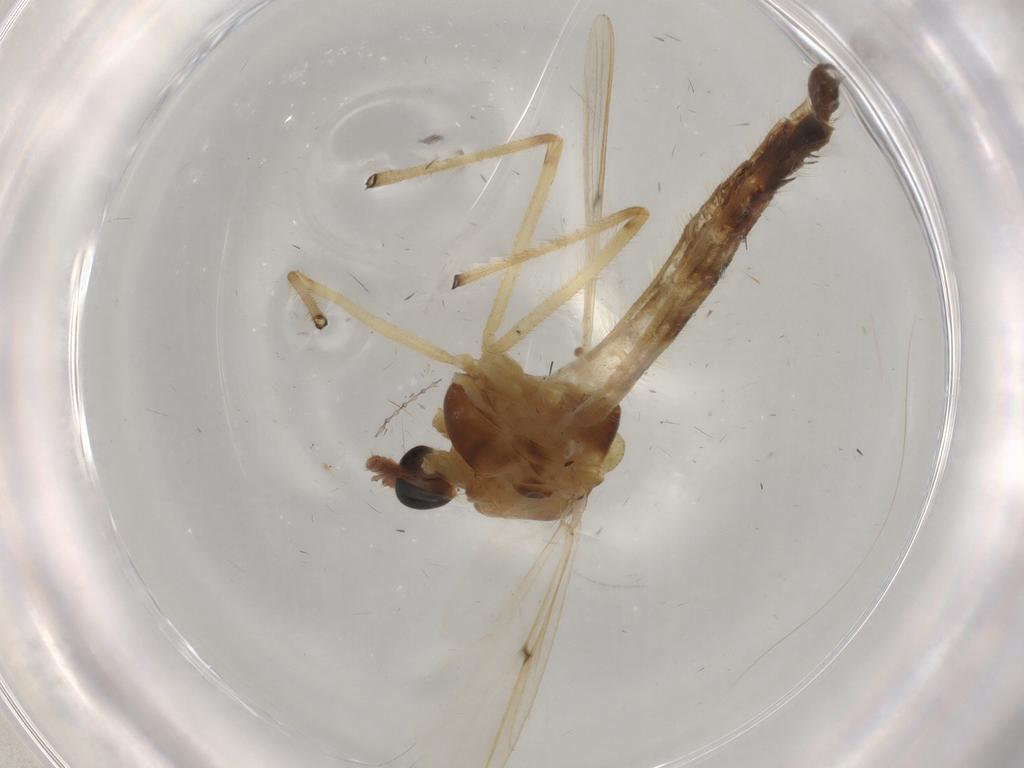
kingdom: Animalia
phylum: Arthropoda
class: Insecta
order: Diptera
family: Chironomidae
